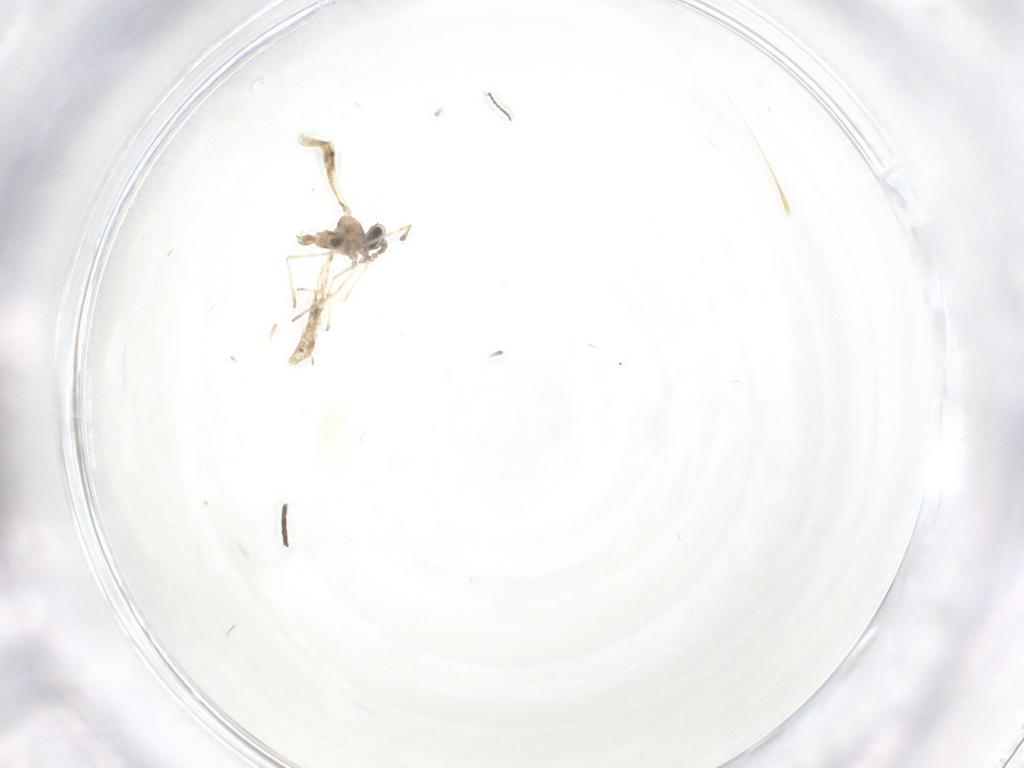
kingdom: Animalia
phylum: Arthropoda
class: Insecta
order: Diptera
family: Cecidomyiidae
